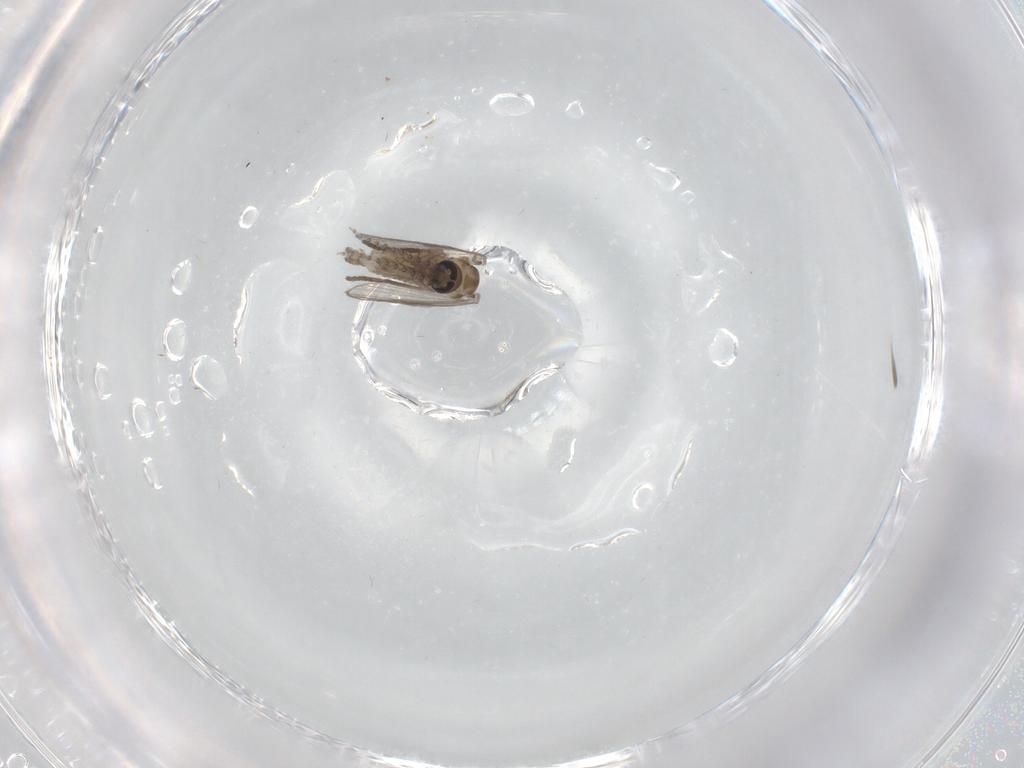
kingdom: Animalia
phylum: Arthropoda
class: Insecta
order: Diptera
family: Psychodidae
